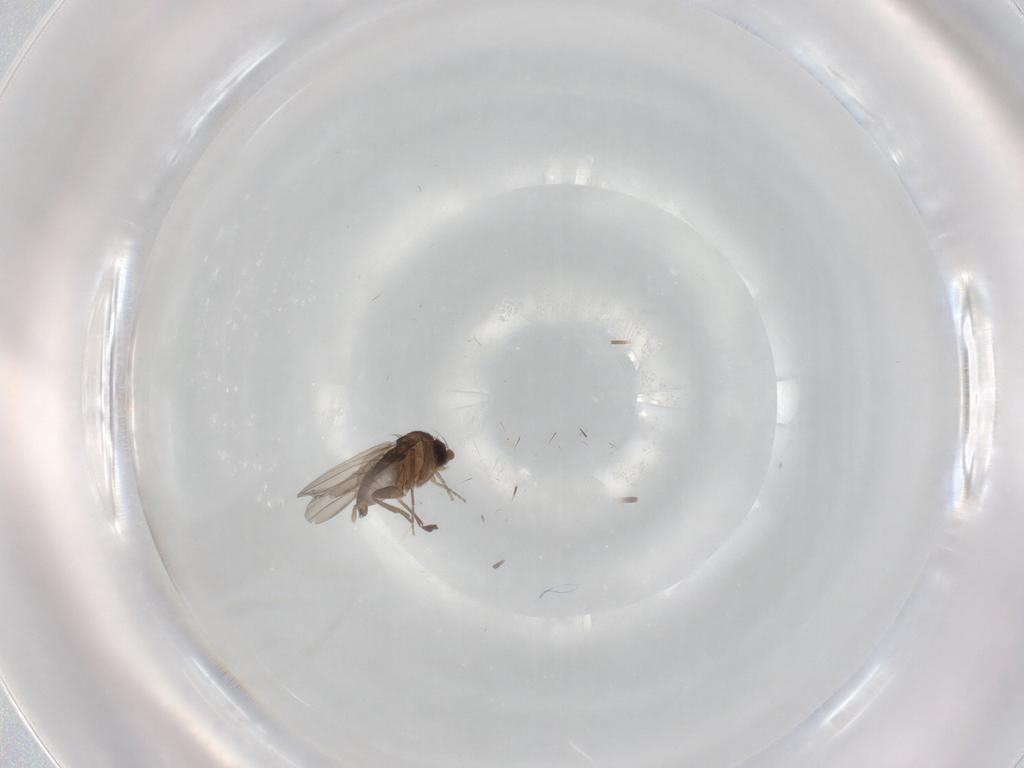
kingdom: Animalia
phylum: Arthropoda
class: Insecta
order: Diptera
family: Phoridae
